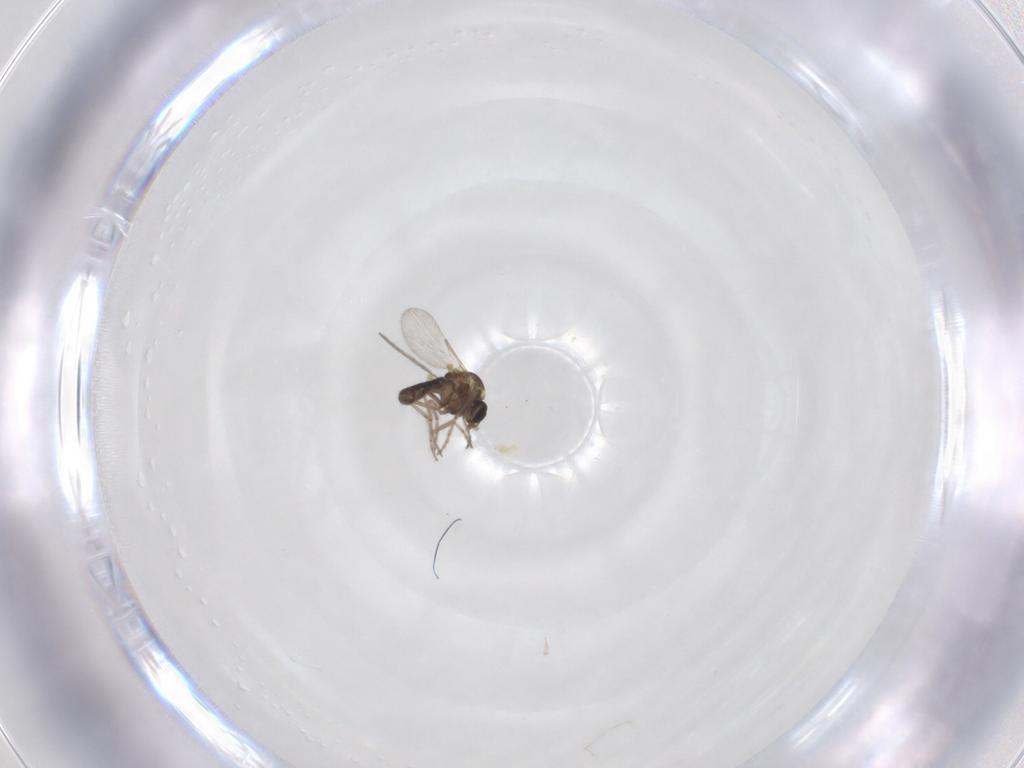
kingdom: Animalia
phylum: Arthropoda
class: Insecta
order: Diptera
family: Ceratopogonidae
